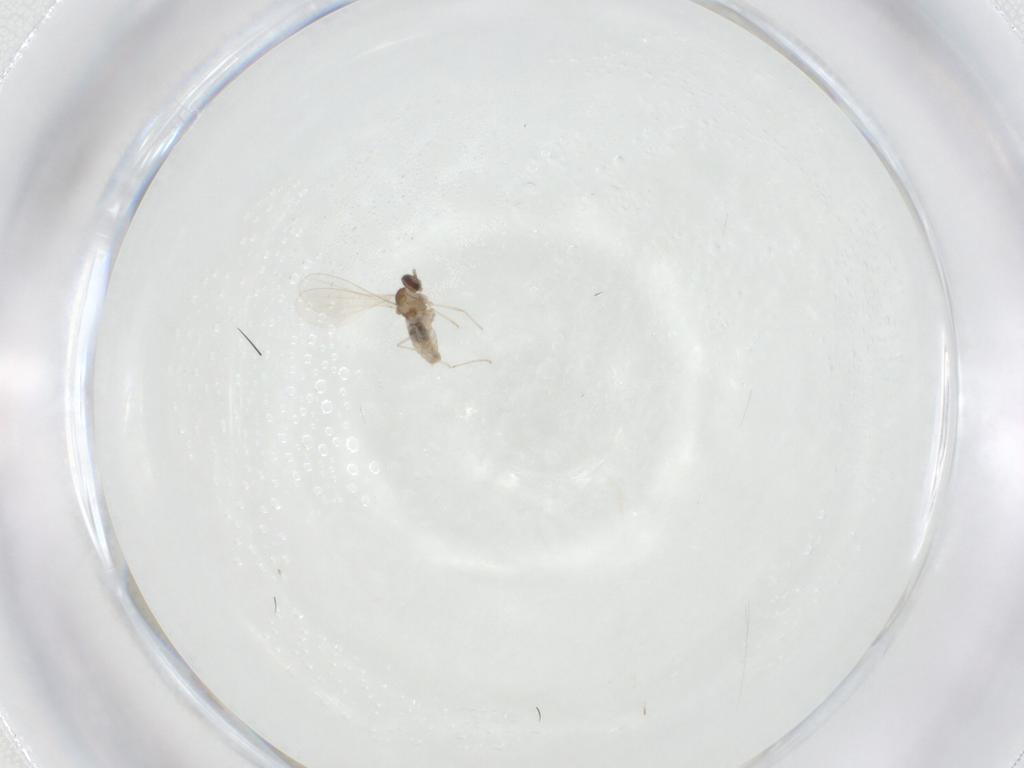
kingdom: Animalia
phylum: Arthropoda
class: Insecta
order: Diptera
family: Cecidomyiidae
